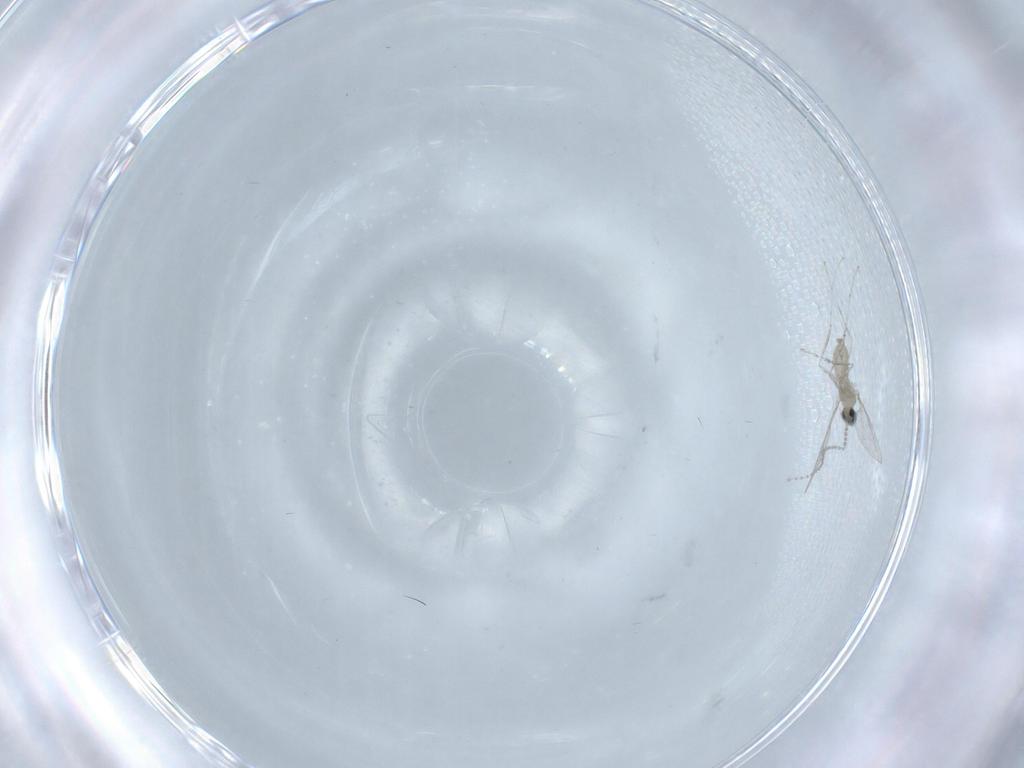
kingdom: Animalia
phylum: Arthropoda
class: Insecta
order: Diptera
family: Cecidomyiidae
